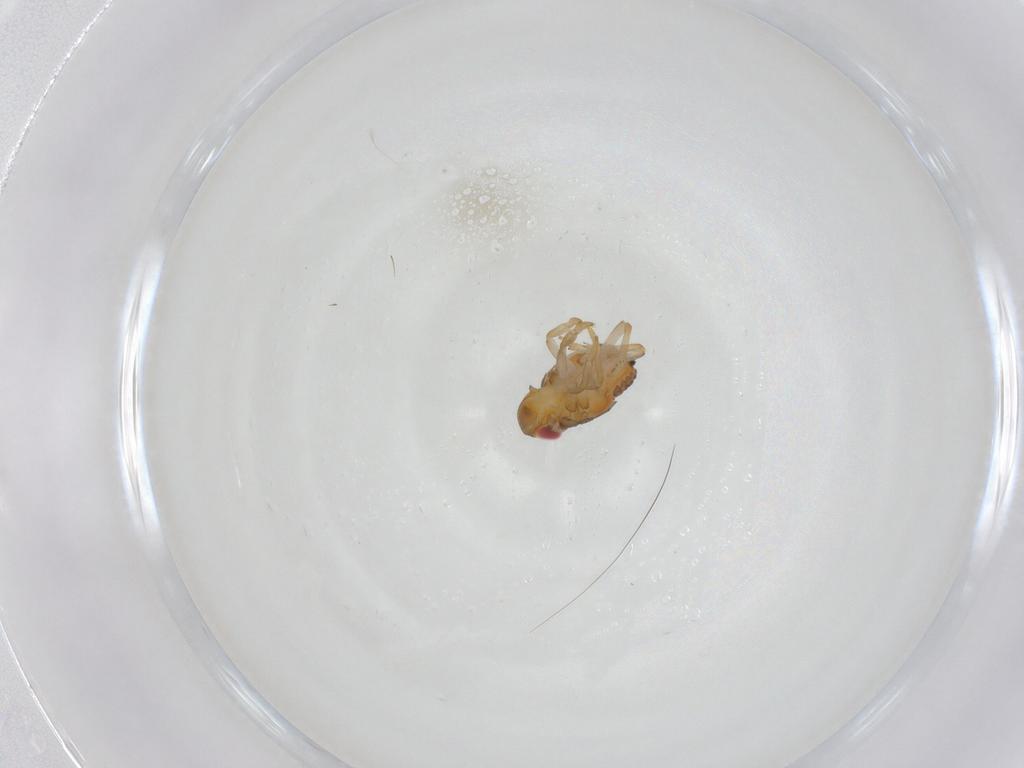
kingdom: Animalia
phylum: Arthropoda
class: Insecta
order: Hemiptera
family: Issidae
